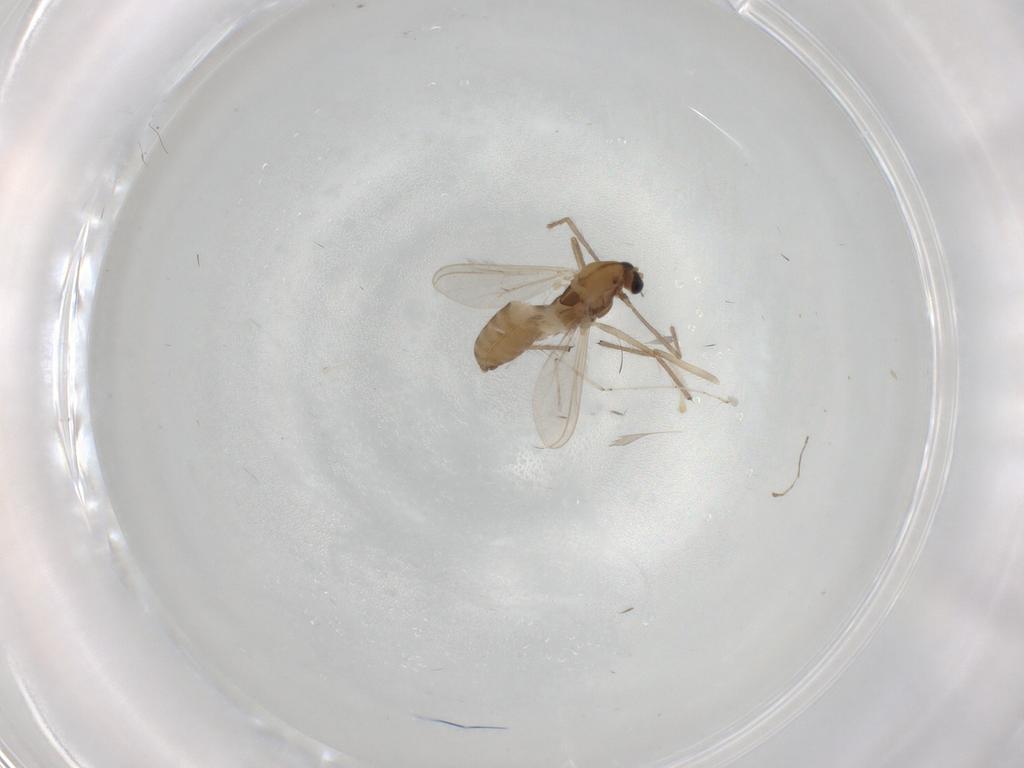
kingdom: Animalia
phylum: Arthropoda
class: Insecta
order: Diptera
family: Chironomidae
